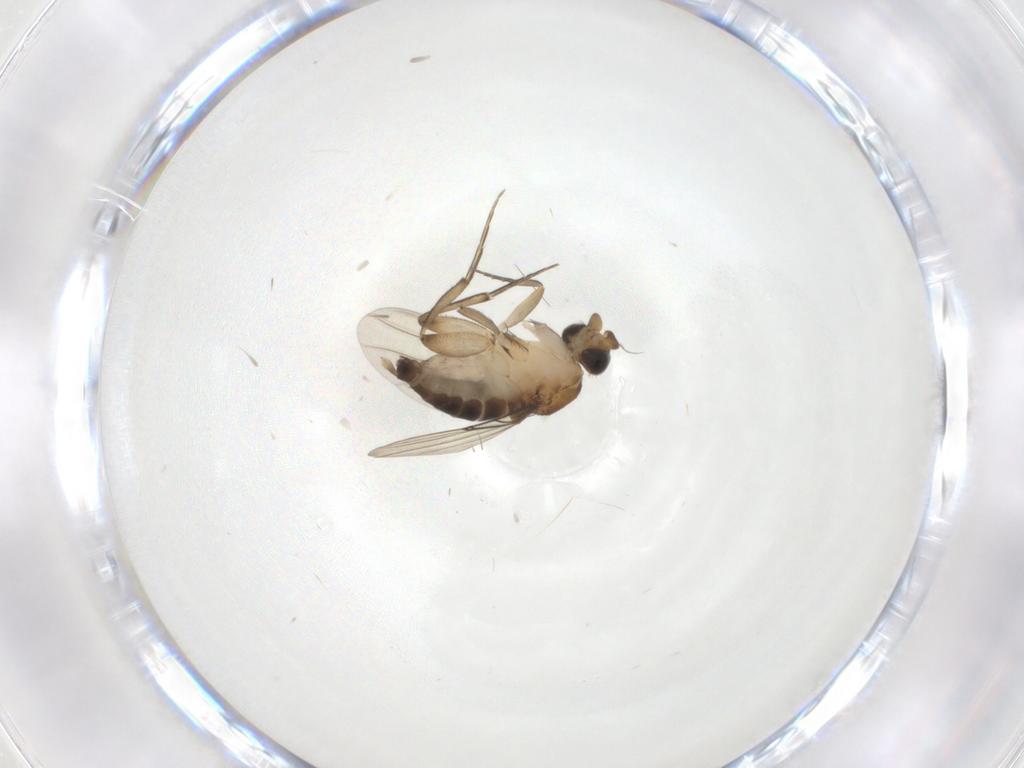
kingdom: Animalia
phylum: Arthropoda
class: Insecta
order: Diptera
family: Phoridae
